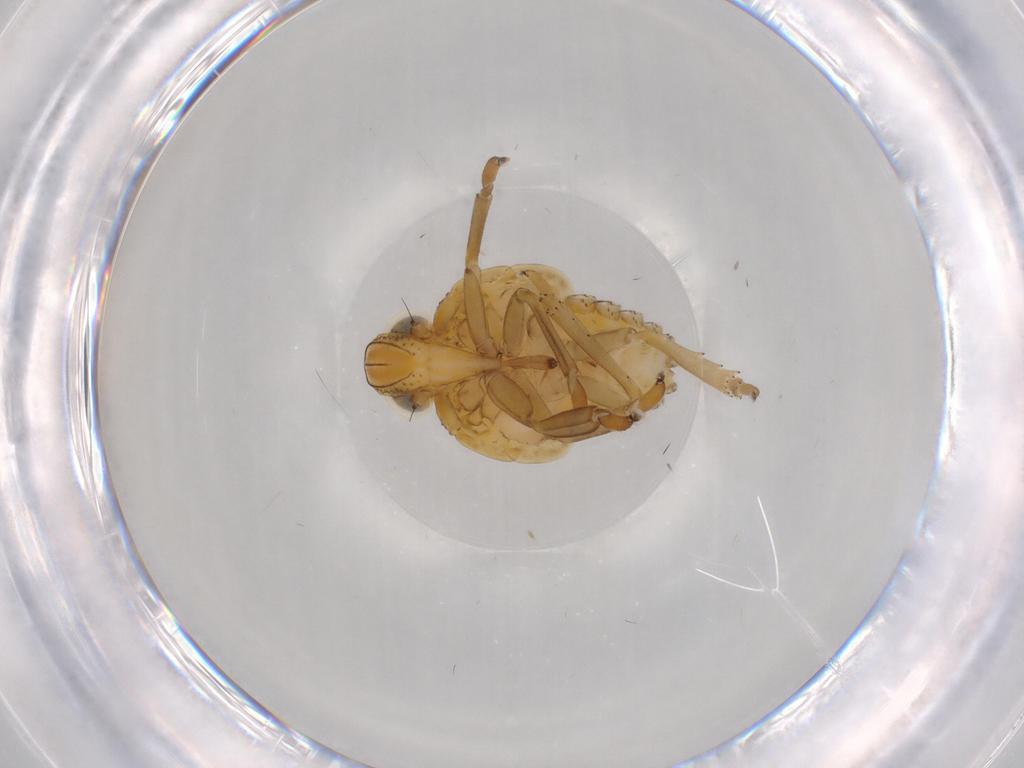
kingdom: Animalia
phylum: Arthropoda
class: Insecta
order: Hemiptera
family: Issidae
